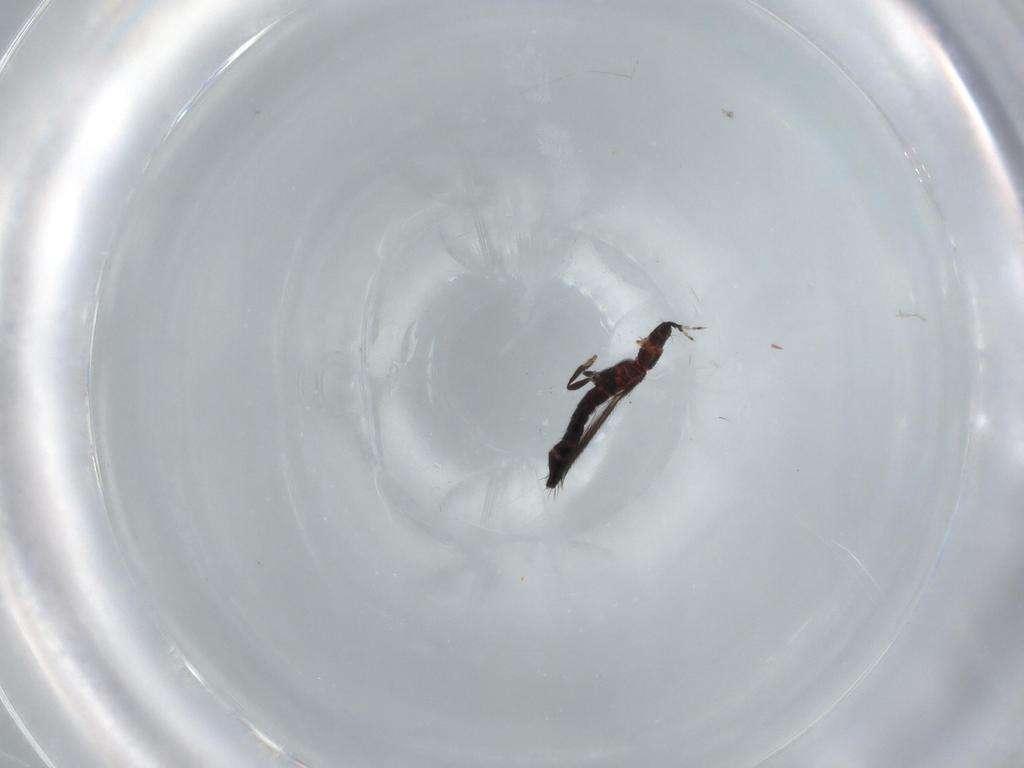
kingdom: Animalia
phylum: Arthropoda
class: Insecta
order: Thysanoptera
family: Thripidae
